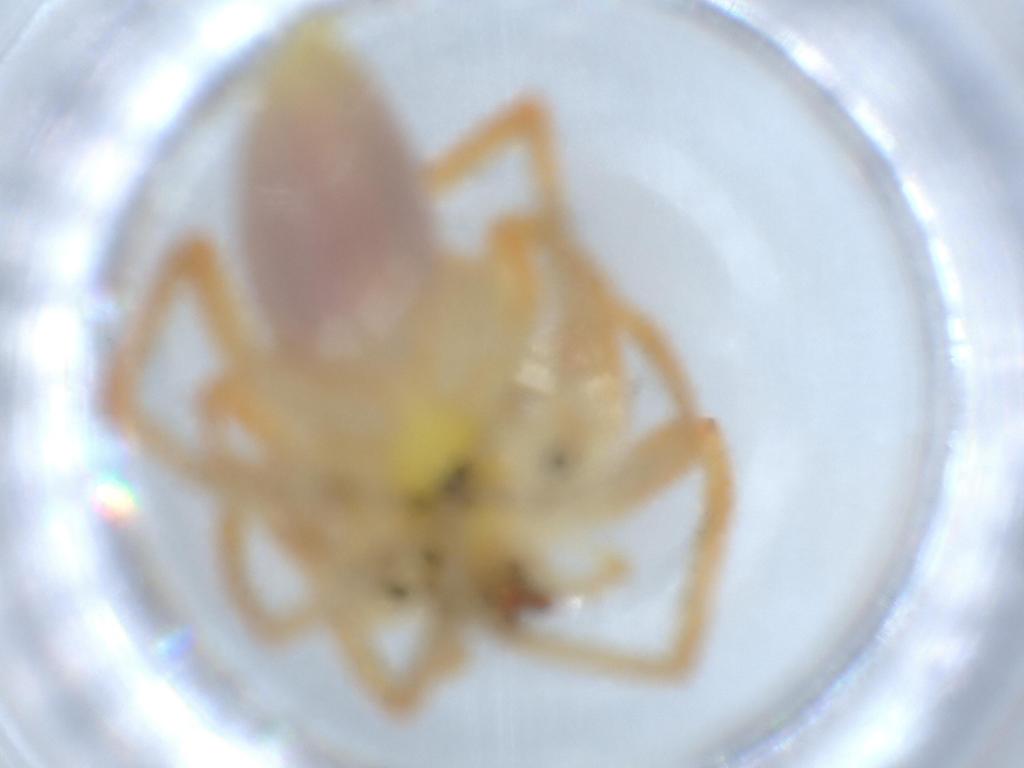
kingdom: Animalia
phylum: Arthropoda
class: Arachnida
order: Araneae
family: Anyphaenidae
